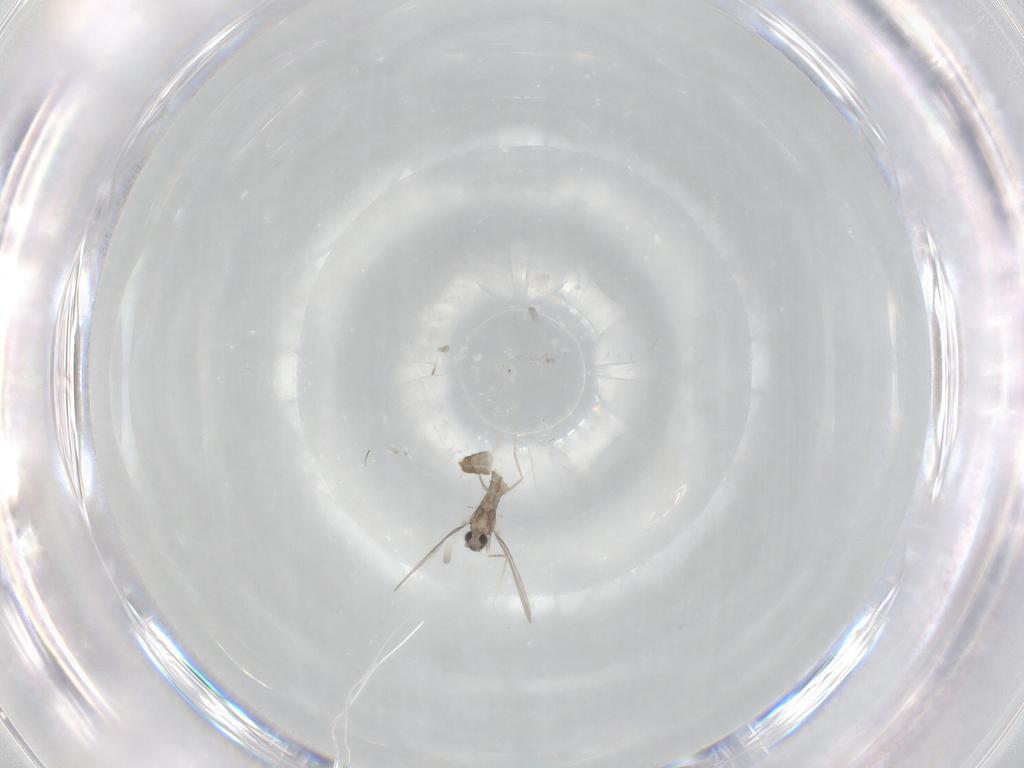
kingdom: Animalia
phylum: Arthropoda
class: Insecta
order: Diptera
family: Cecidomyiidae
